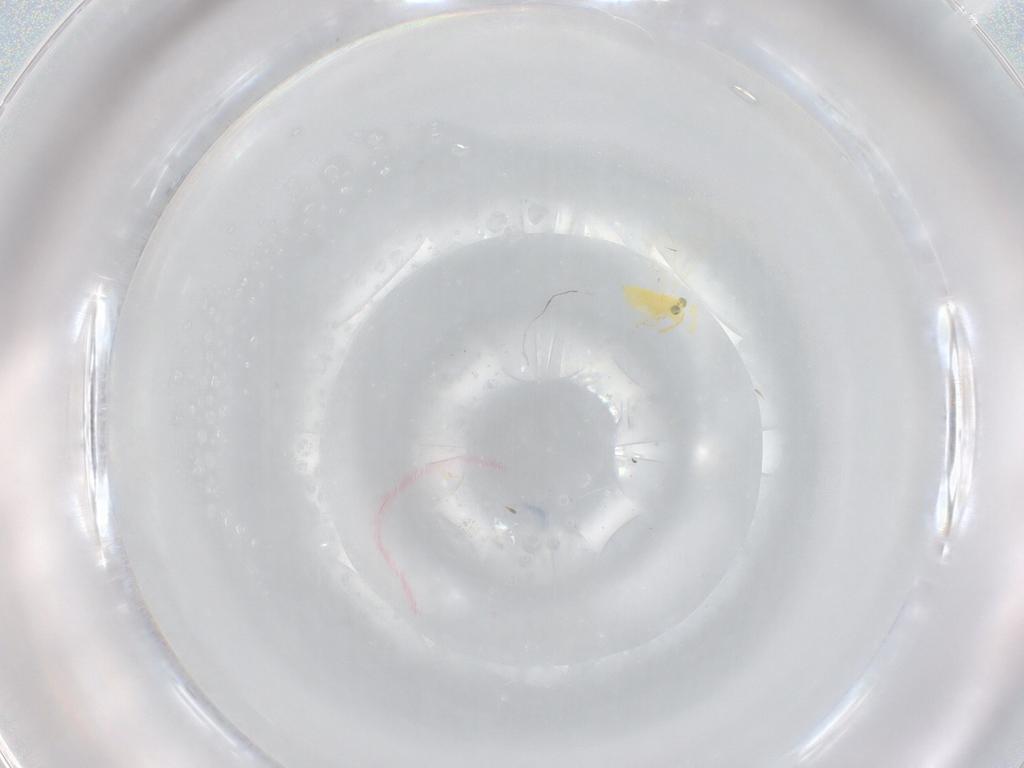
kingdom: Animalia
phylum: Arthropoda
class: Insecta
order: Hymenoptera
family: Aphelinidae
